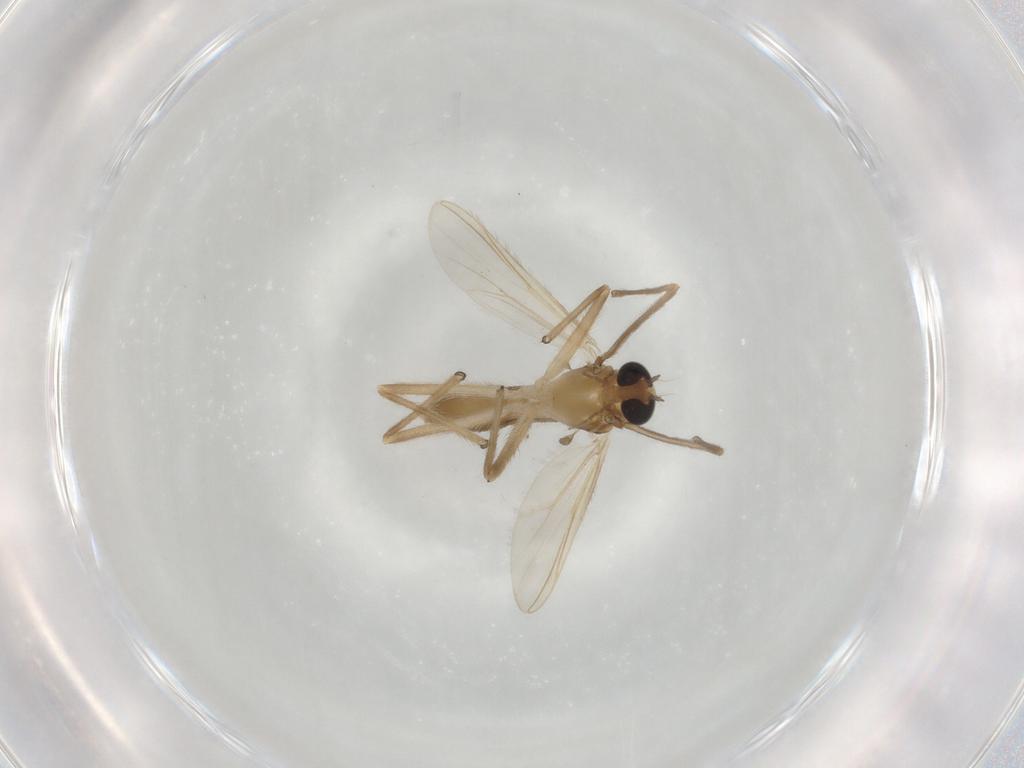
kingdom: Animalia
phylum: Arthropoda
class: Insecta
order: Diptera
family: Chironomidae
